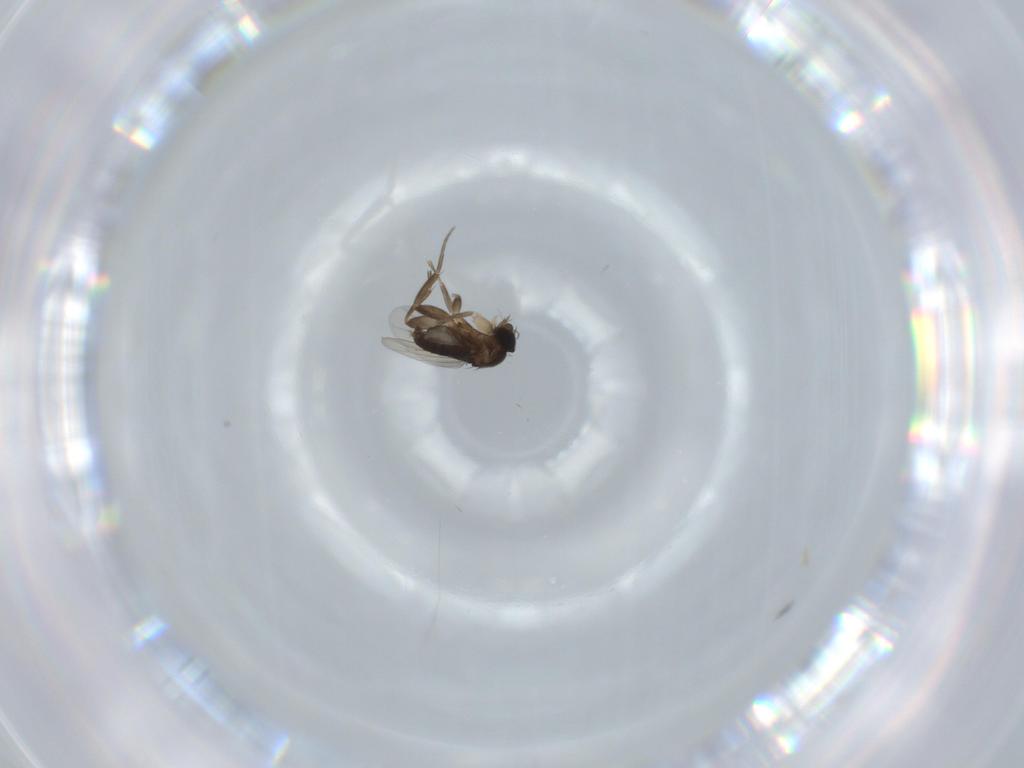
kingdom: Animalia
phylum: Arthropoda
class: Insecta
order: Diptera
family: Phoridae
